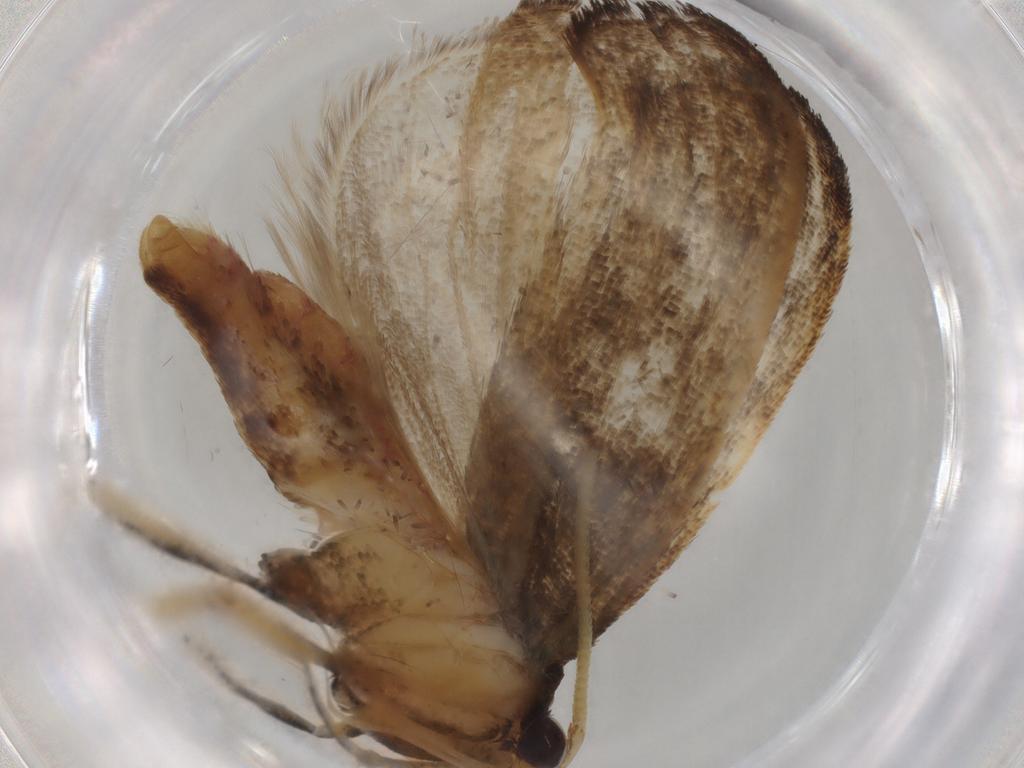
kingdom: Animalia
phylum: Arthropoda
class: Insecta
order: Lepidoptera
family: Lecithoceridae
